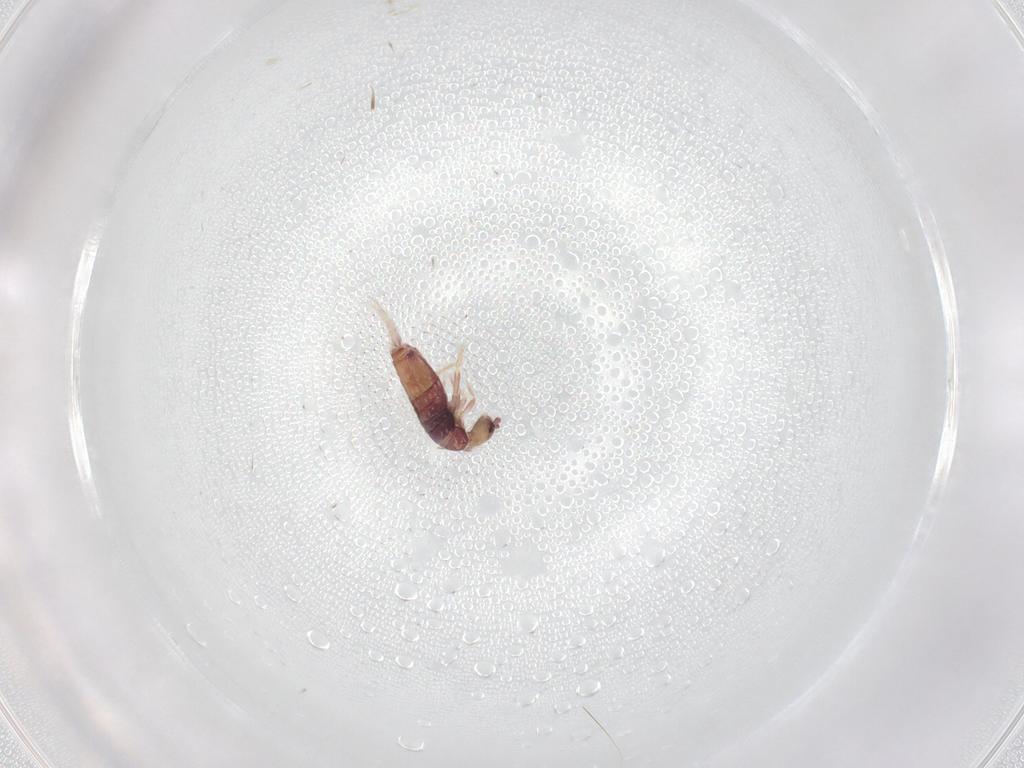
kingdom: Animalia
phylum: Arthropoda
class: Collembola
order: Entomobryomorpha
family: Entomobryidae
